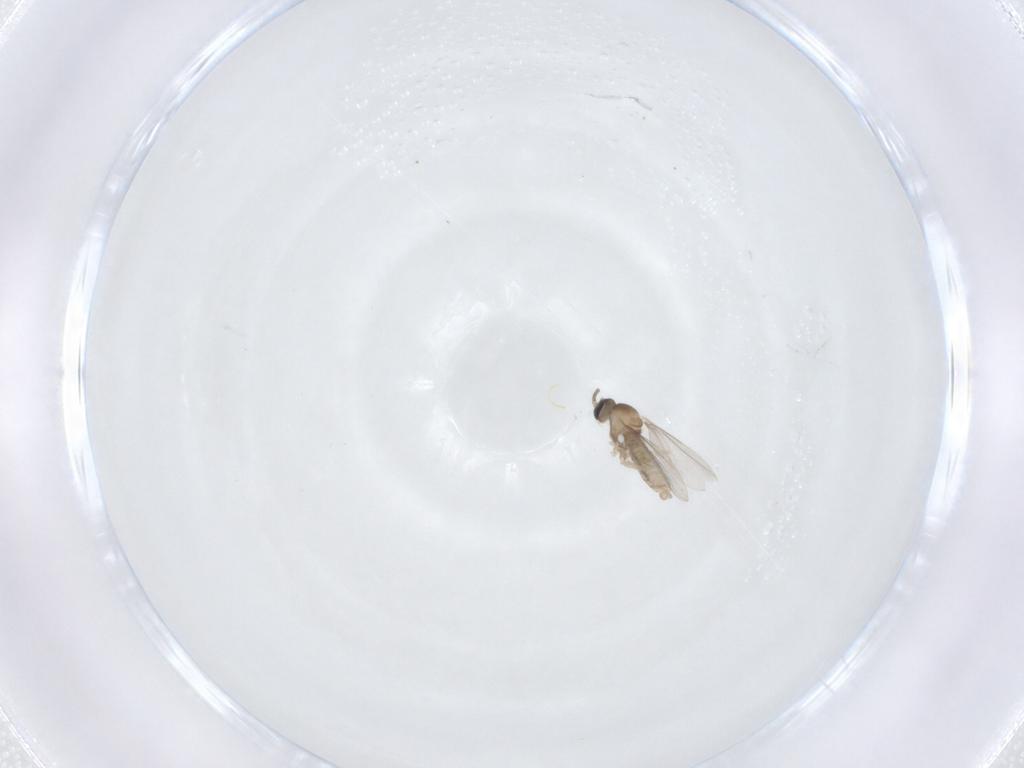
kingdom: Animalia
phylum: Arthropoda
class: Insecta
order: Diptera
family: Cecidomyiidae
